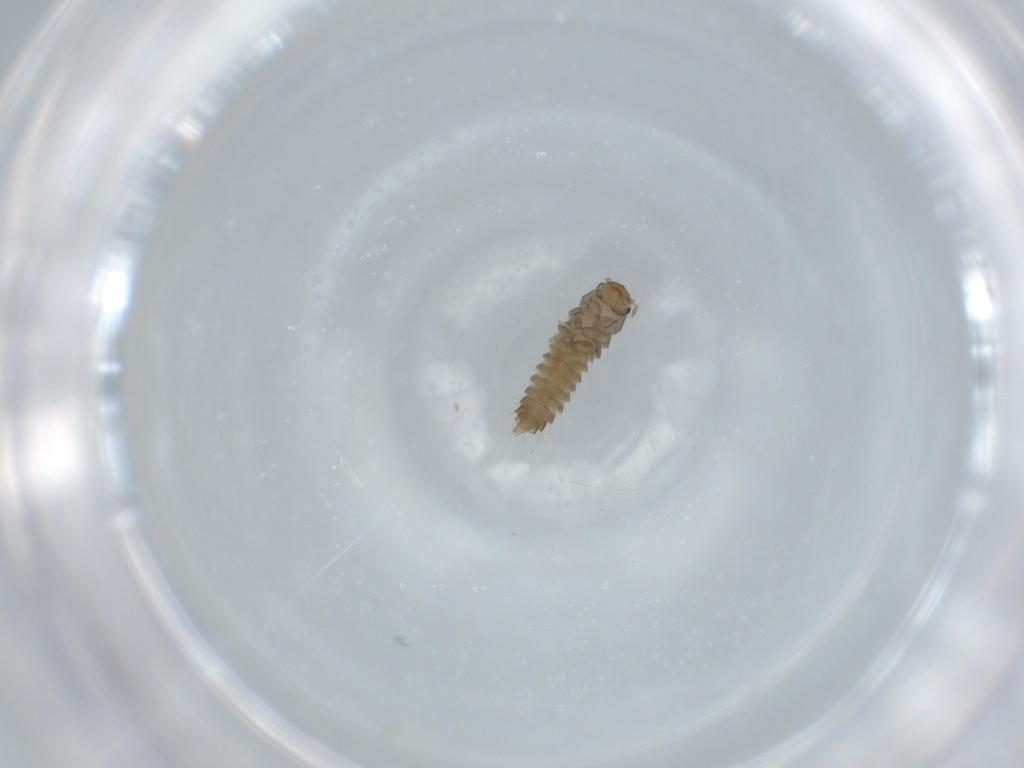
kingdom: Animalia
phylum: Arthropoda
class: Insecta
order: Coleoptera
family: Staphylinidae
